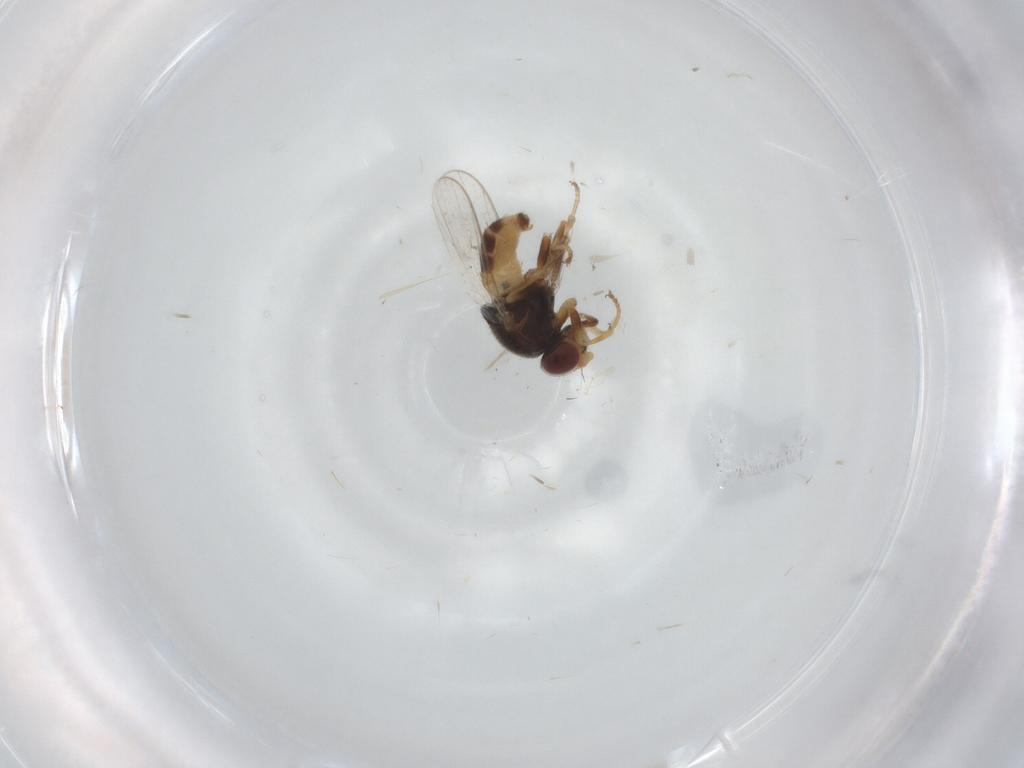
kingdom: Animalia
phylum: Arthropoda
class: Insecta
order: Diptera
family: Chloropidae
